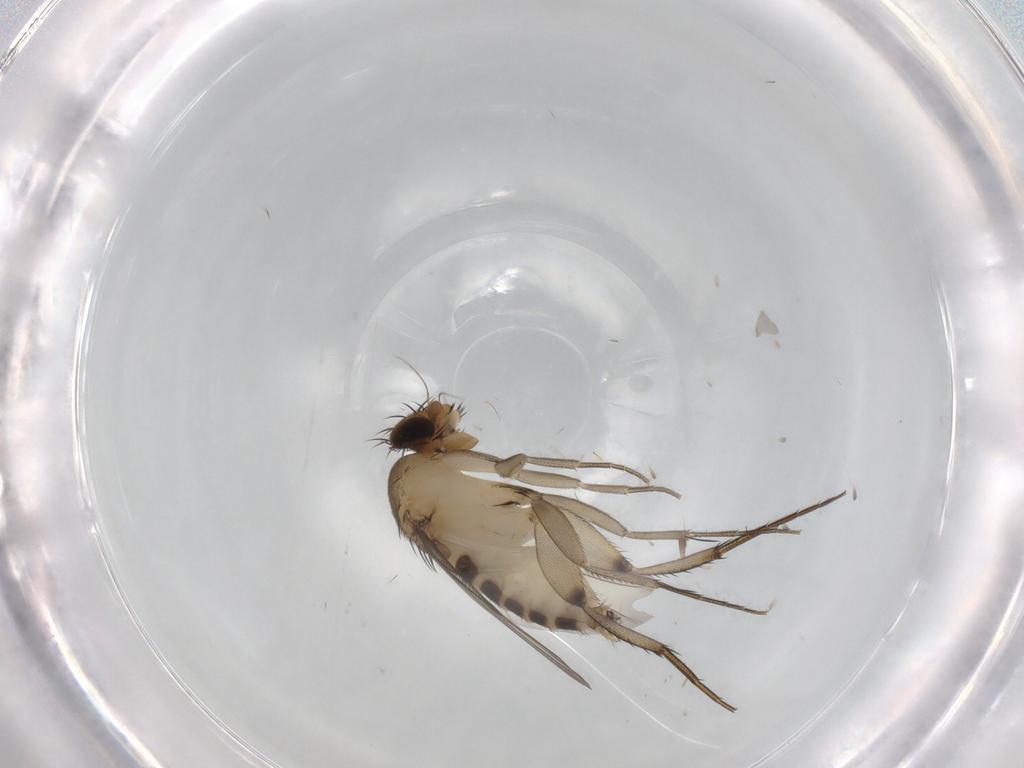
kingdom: Animalia
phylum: Arthropoda
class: Insecta
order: Diptera
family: Phoridae
